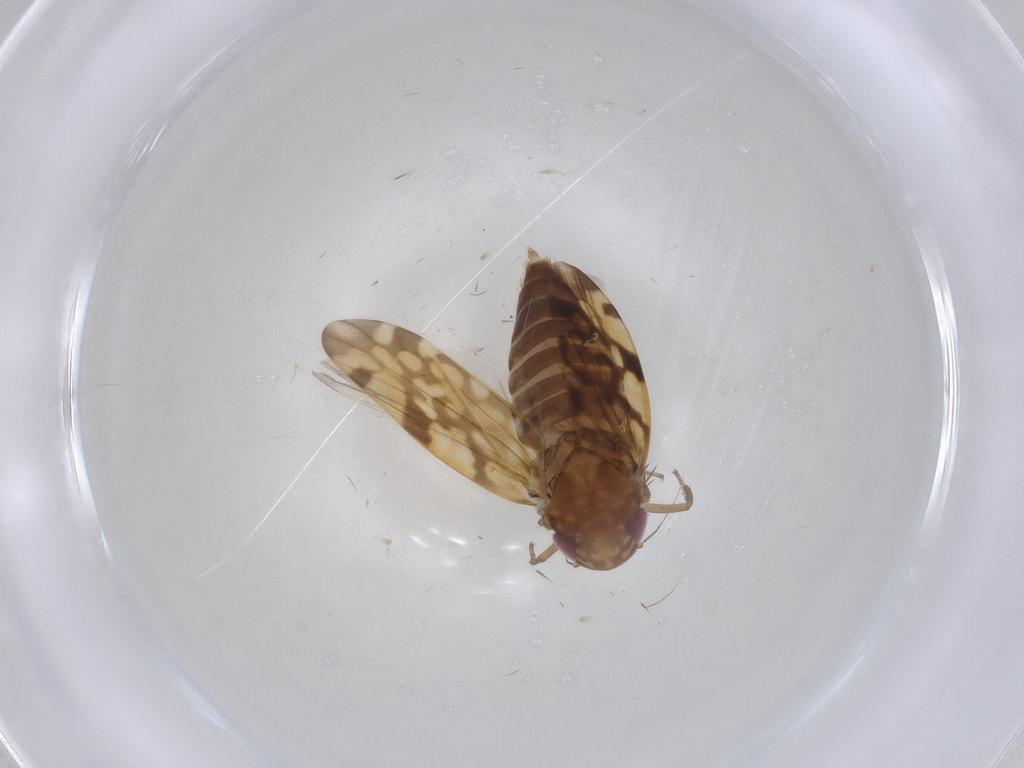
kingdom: Animalia
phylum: Arthropoda
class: Insecta
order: Hemiptera
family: Cicadellidae
